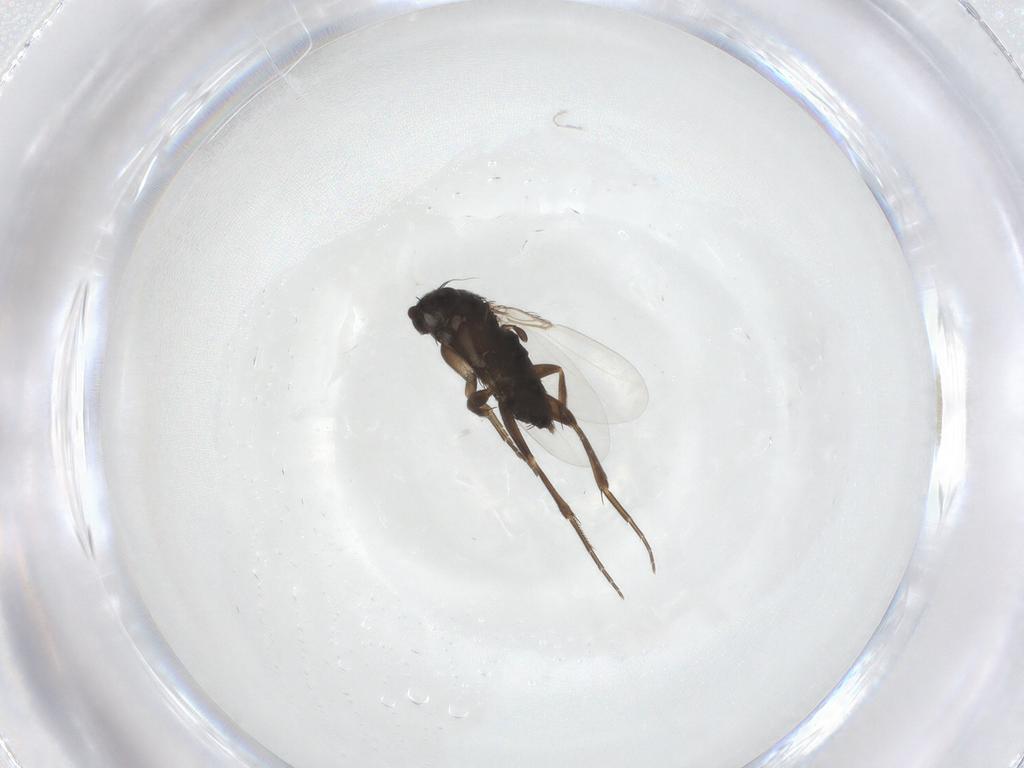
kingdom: Animalia
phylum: Arthropoda
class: Insecta
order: Diptera
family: Phoridae
